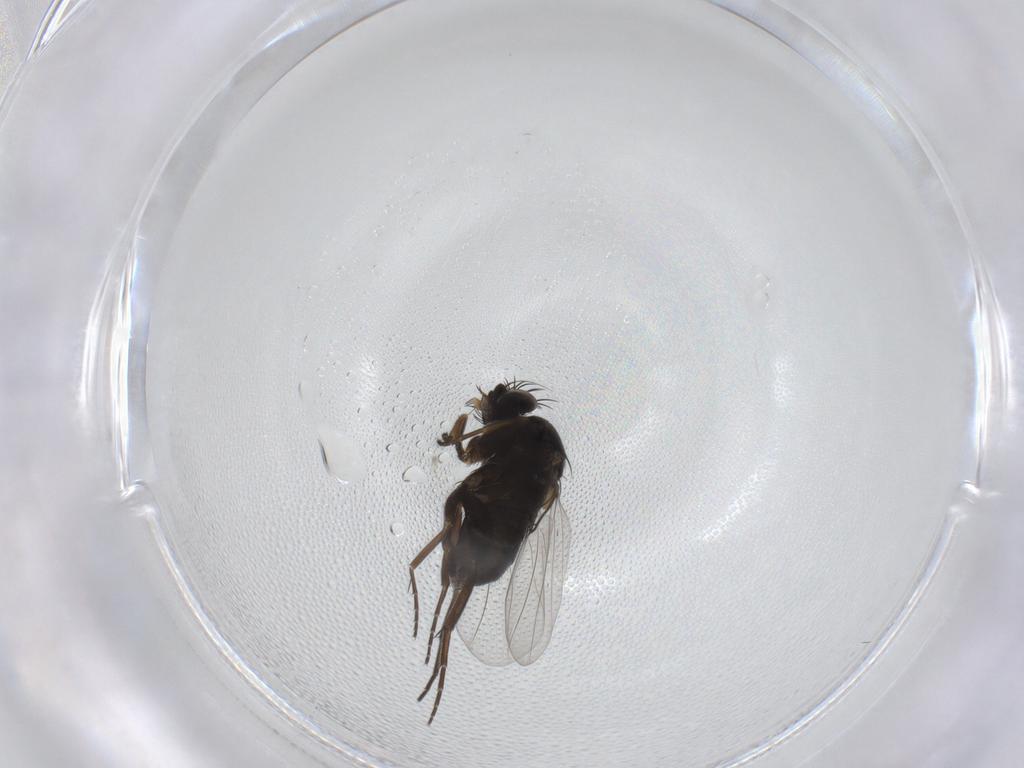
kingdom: Animalia
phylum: Arthropoda
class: Insecta
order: Diptera
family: Phoridae
